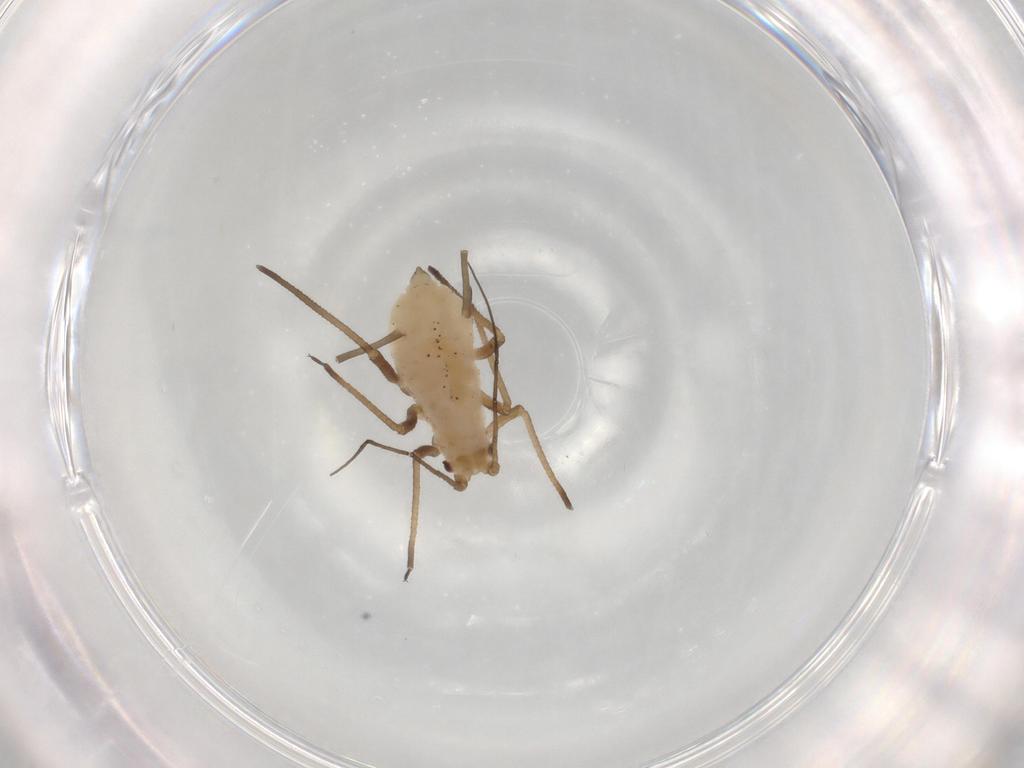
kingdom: Animalia
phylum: Arthropoda
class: Insecta
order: Hemiptera
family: Aphididae
